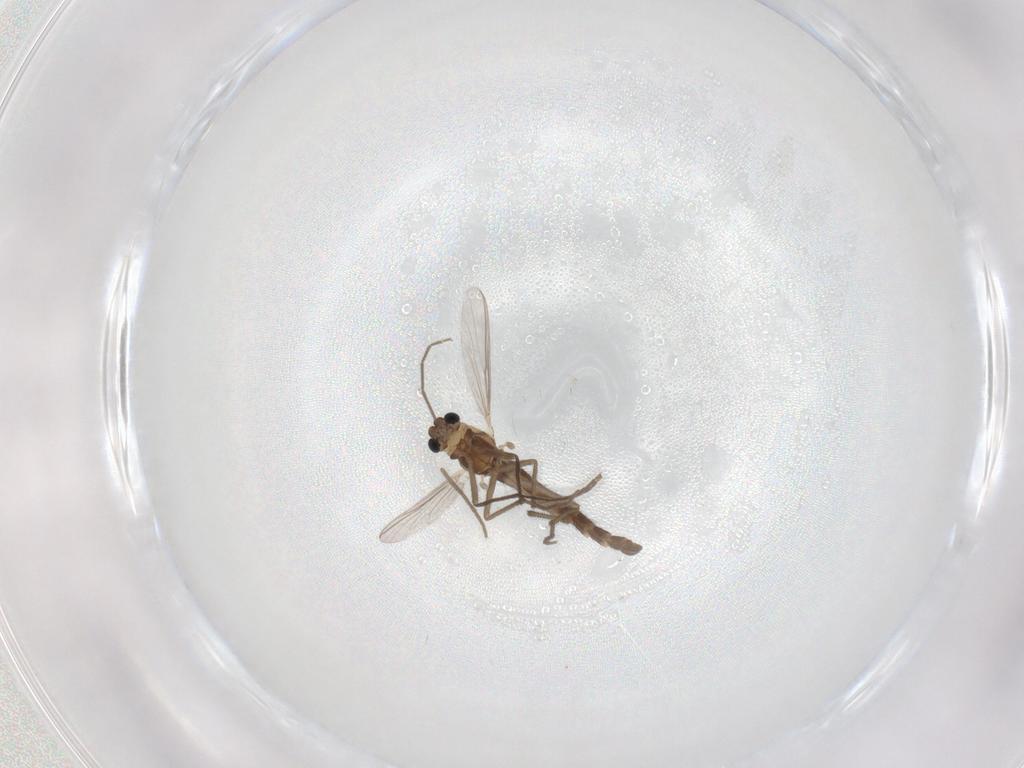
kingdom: Animalia
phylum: Arthropoda
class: Insecta
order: Diptera
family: Chironomidae
